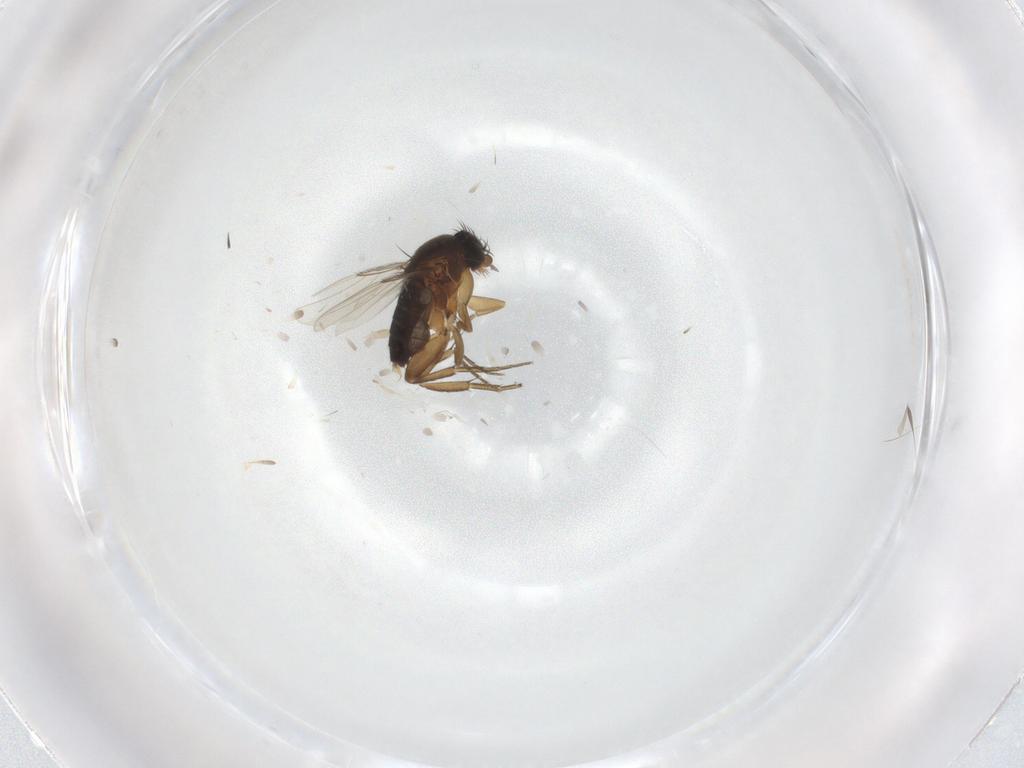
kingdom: Animalia
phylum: Arthropoda
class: Insecta
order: Diptera
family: Phoridae
